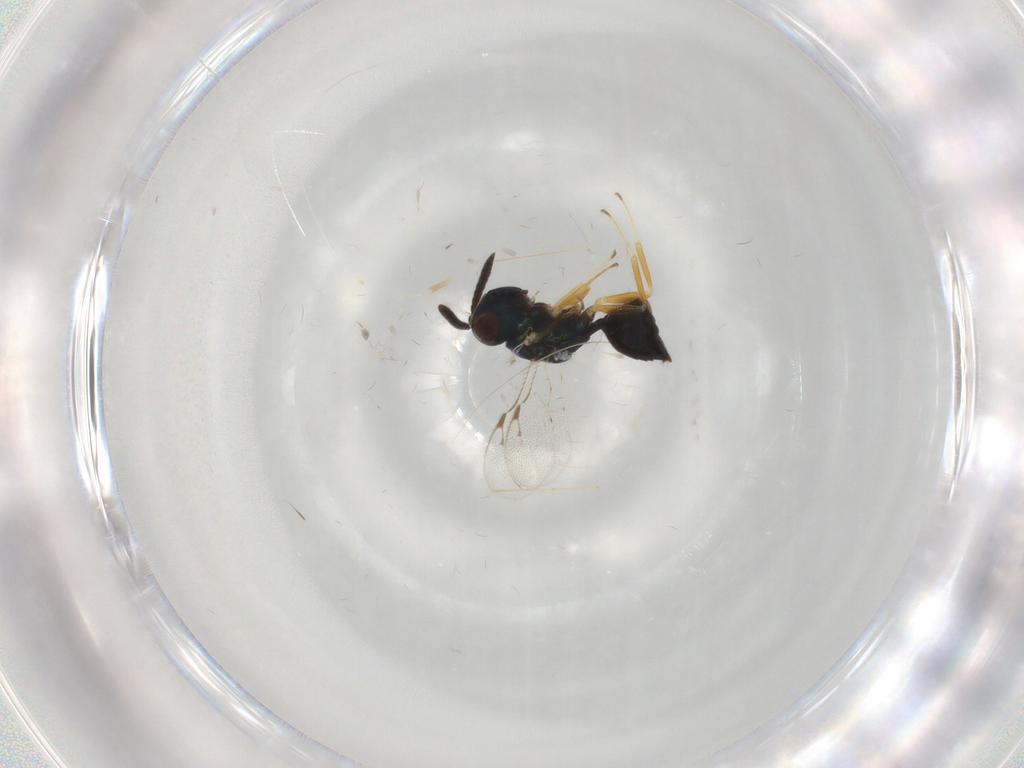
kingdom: Animalia
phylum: Arthropoda
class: Insecta
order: Hymenoptera
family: Pteromalidae
